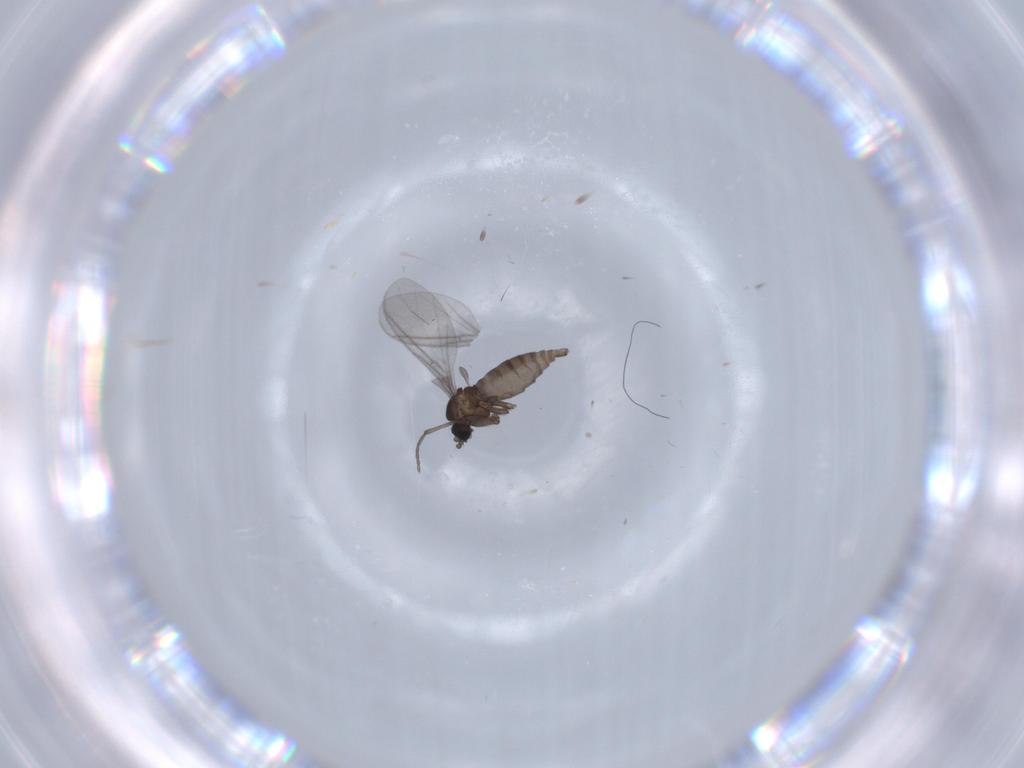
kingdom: Animalia
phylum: Arthropoda
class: Insecta
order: Diptera
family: Sciaridae
